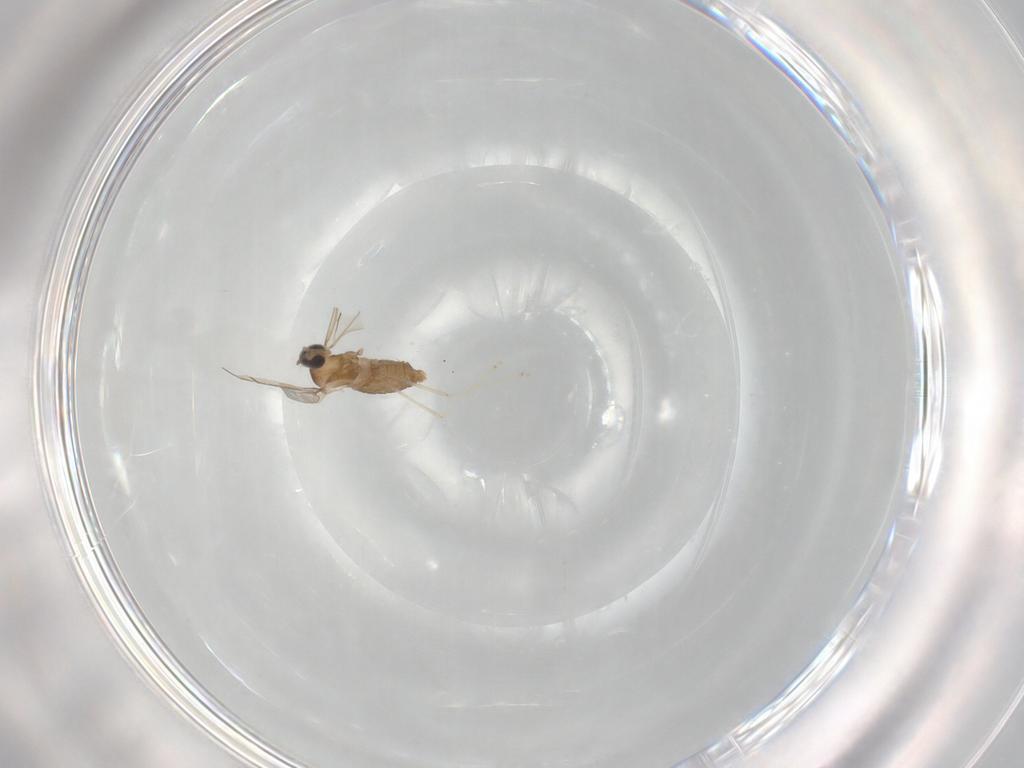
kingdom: Animalia
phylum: Arthropoda
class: Insecta
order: Diptera
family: Cecidomyiidae
